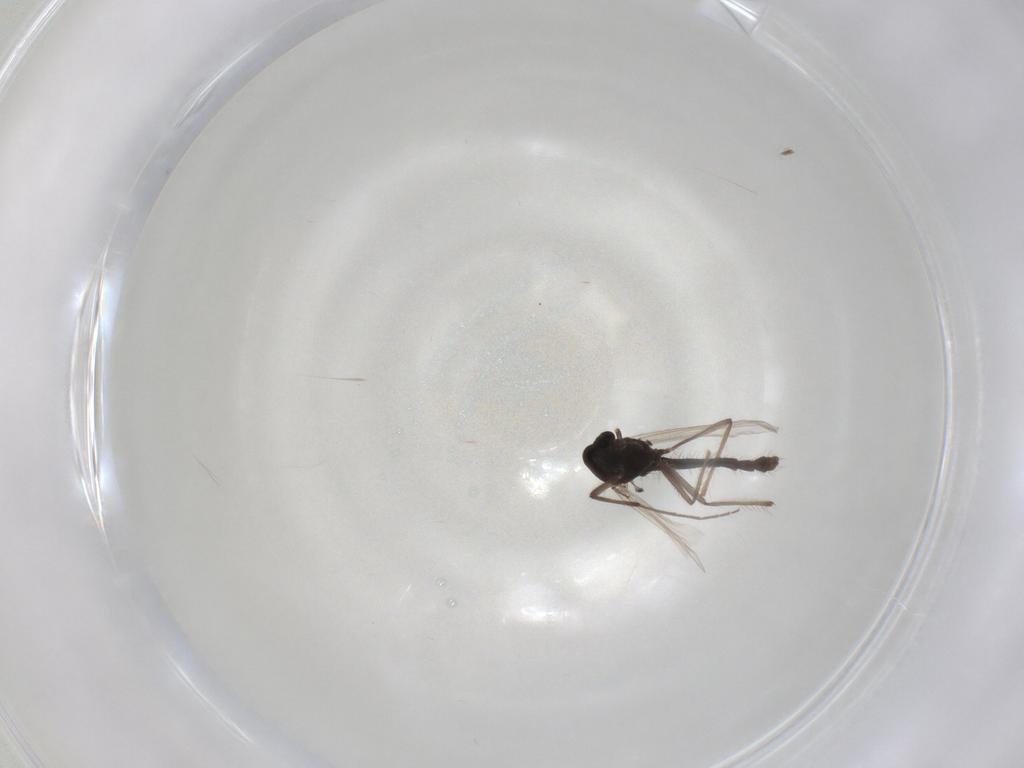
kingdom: Animalia
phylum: Arthropoda
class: Insecta
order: Diptera
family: Chironomidae
